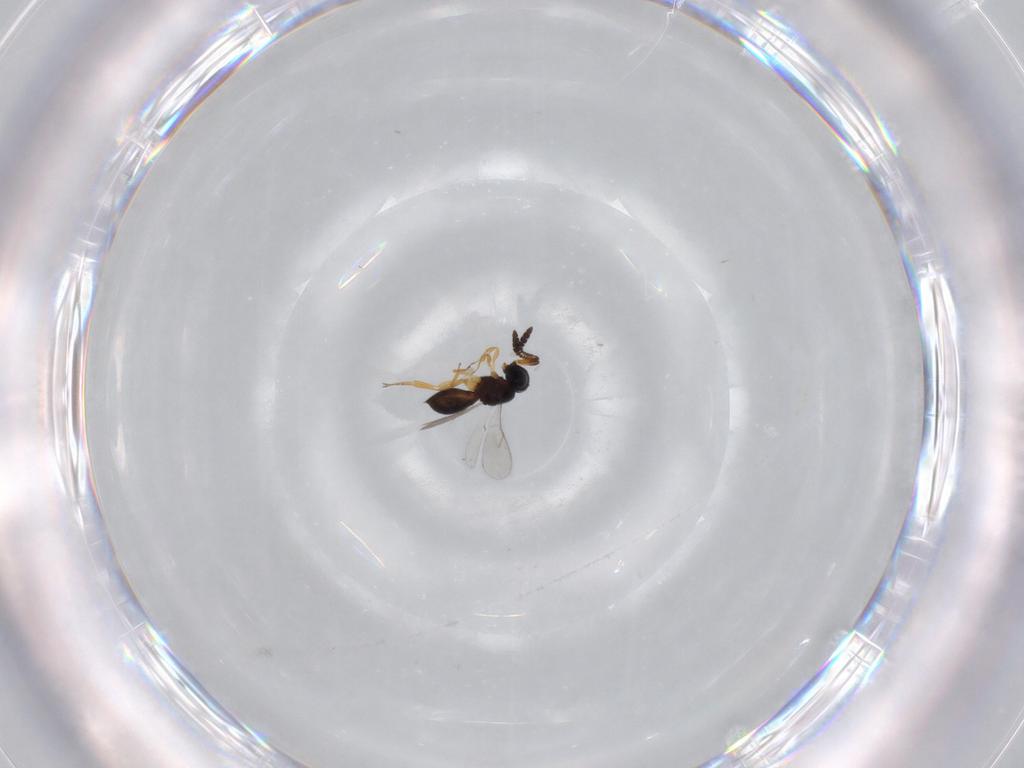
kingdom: Animalia
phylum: Arthropoda
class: Insecta
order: Hymenoptera
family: Scelionidae
